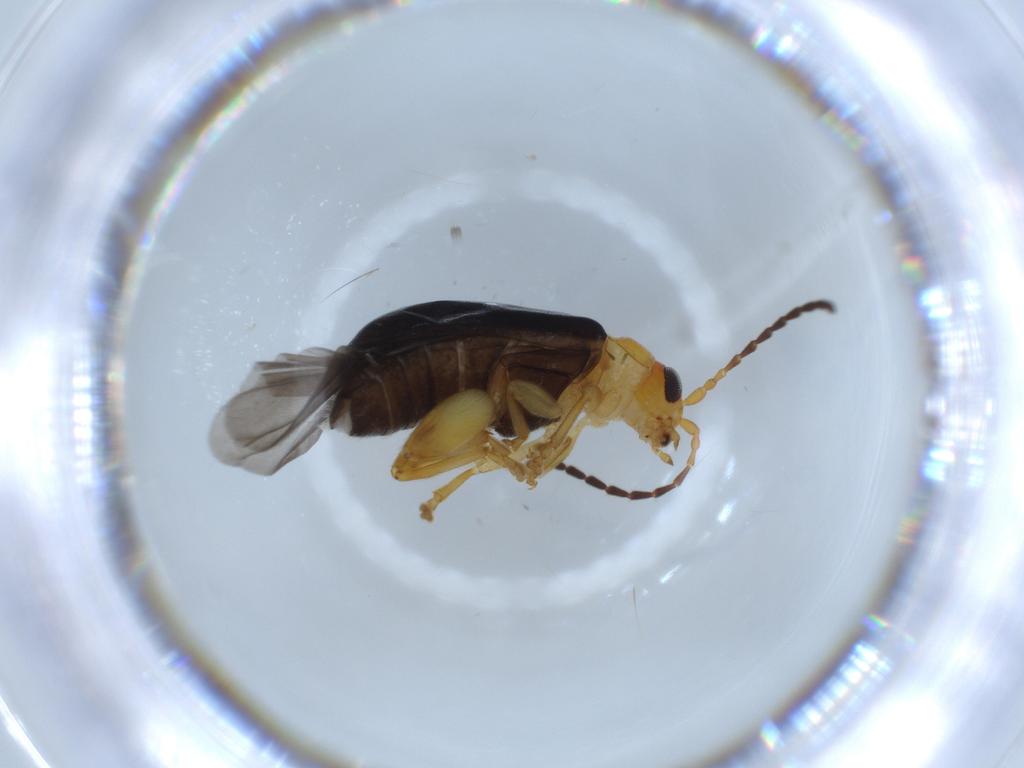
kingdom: Animalia
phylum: Arthropoda
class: Insecta
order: Coleoptera
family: Chrysomelidae
